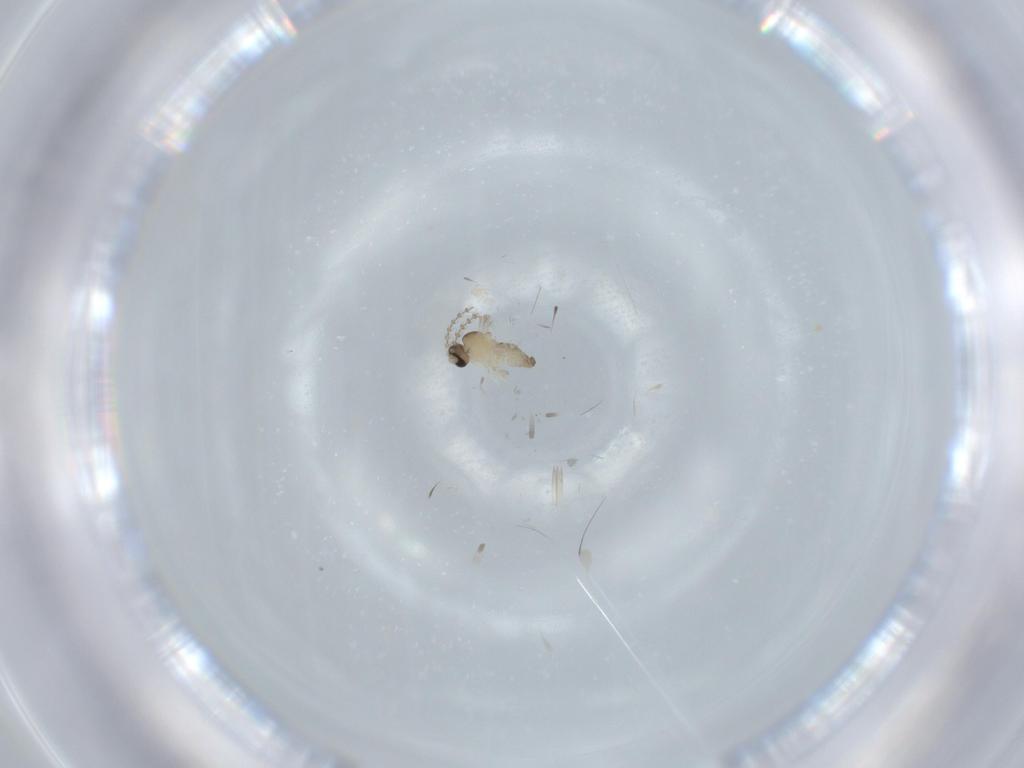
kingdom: Animalia
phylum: Arthropoda
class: Insecta
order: Diptera
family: Cecidomyiidae
